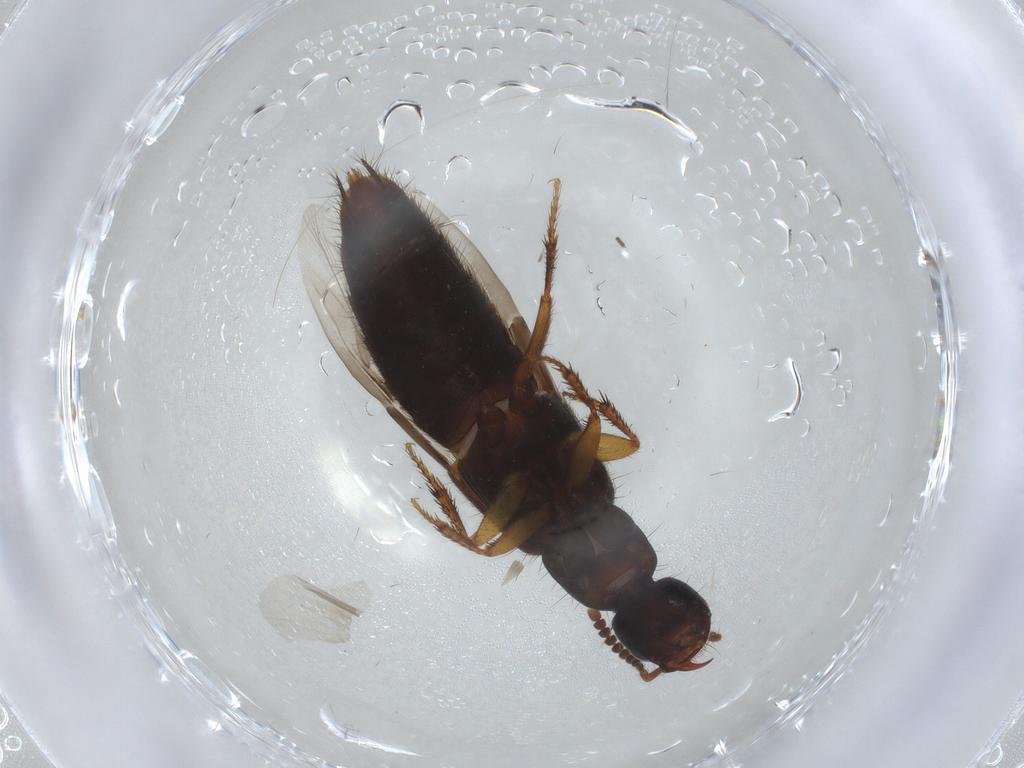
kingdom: Animalia
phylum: Arthropoda
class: Insecta
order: Coleoptera
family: Staphylinidae
